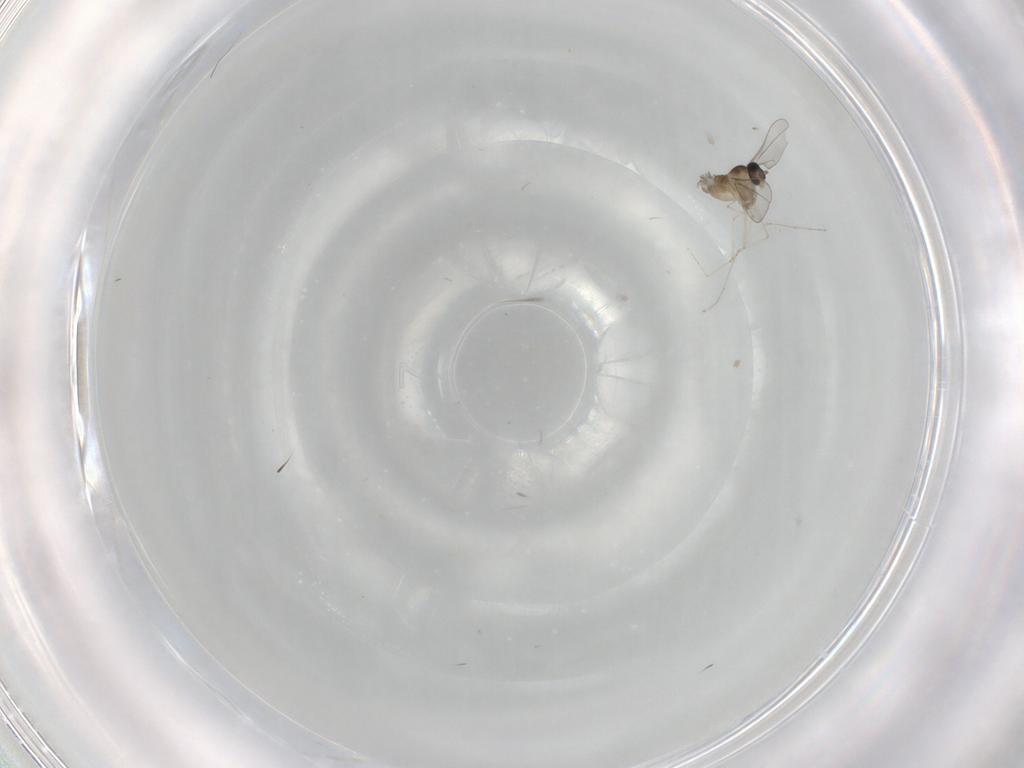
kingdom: Animalia
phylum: Arthropoda
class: Insecta
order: Diptera
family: Cecidomyiidae
